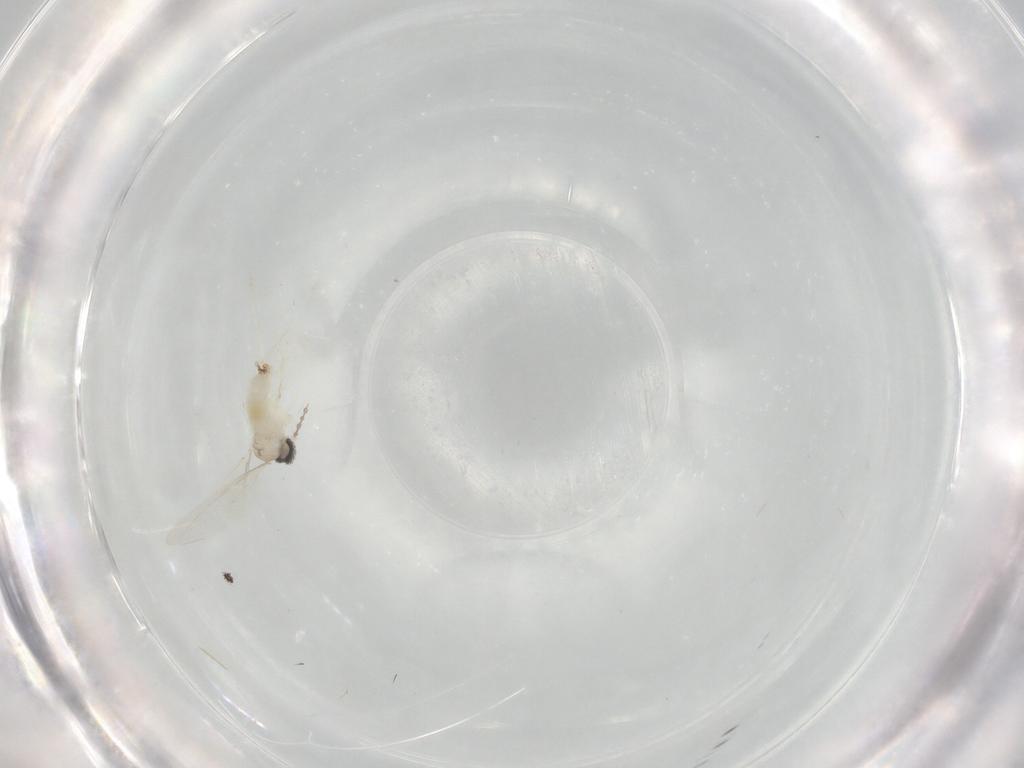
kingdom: Animalia
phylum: Arthropoda
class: Insecta
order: Diptera
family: Cecidomyiidae
